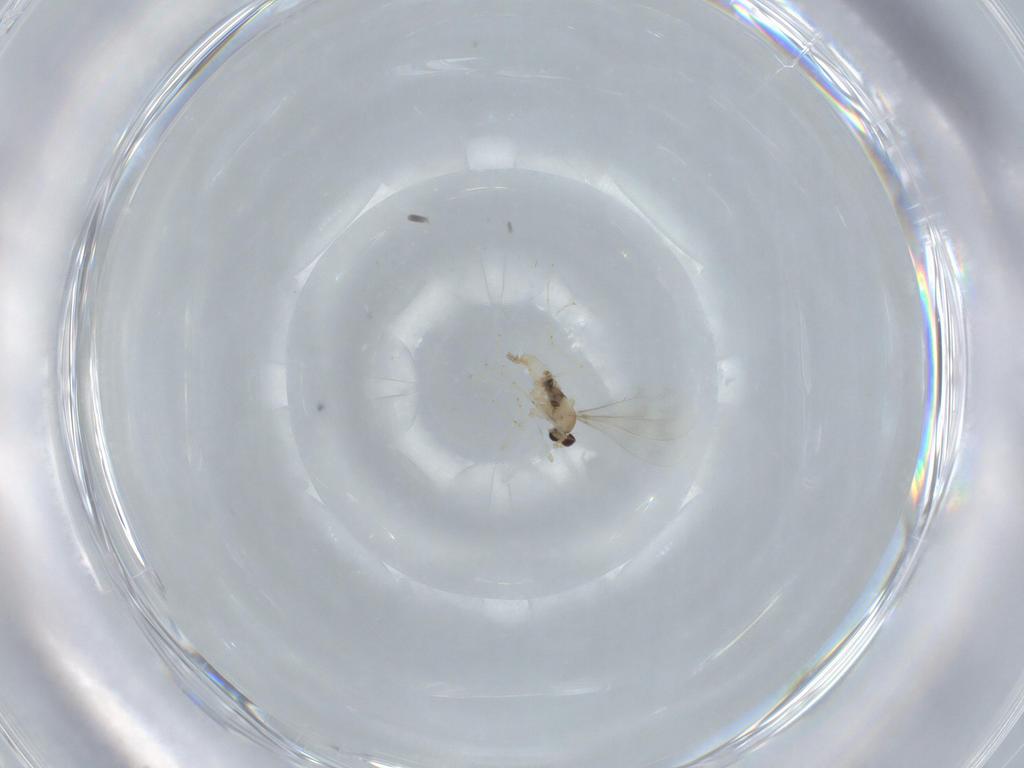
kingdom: Animalia
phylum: Arthropoda
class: Insecta
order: Diptera
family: Cecidomyiidae
